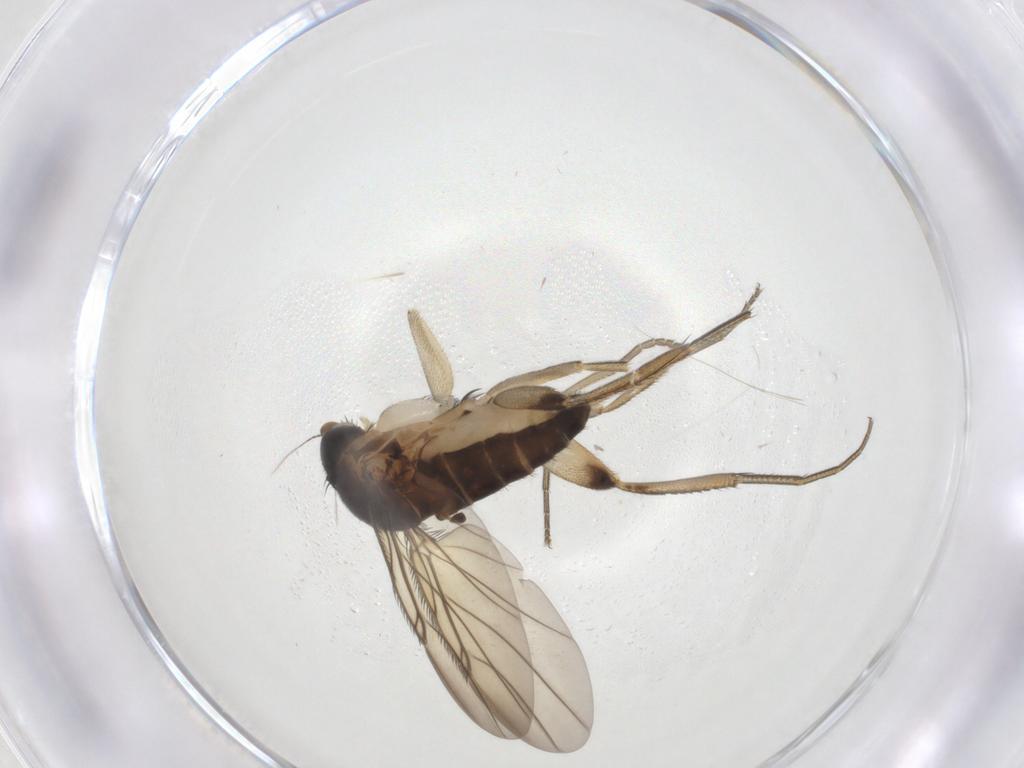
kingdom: Animalia
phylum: Arthropoda
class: Insecta
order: Diptera
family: Phoridae
